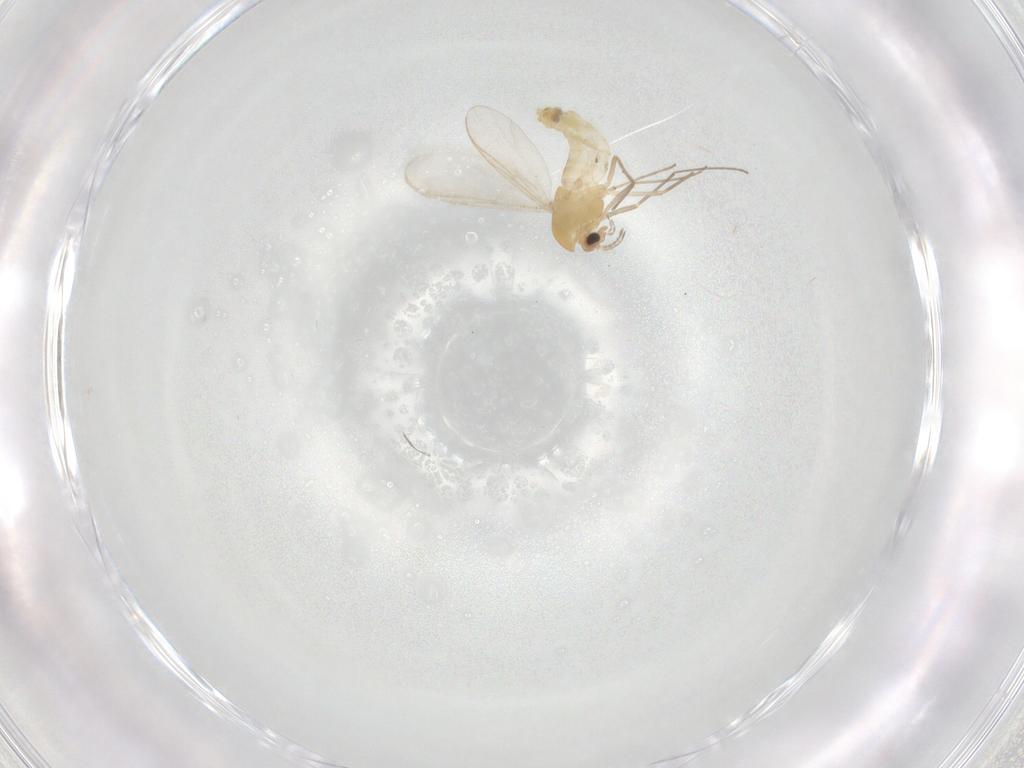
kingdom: Animalia
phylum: Arthropoda
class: Insecta
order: Diptera
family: Chironomidae
